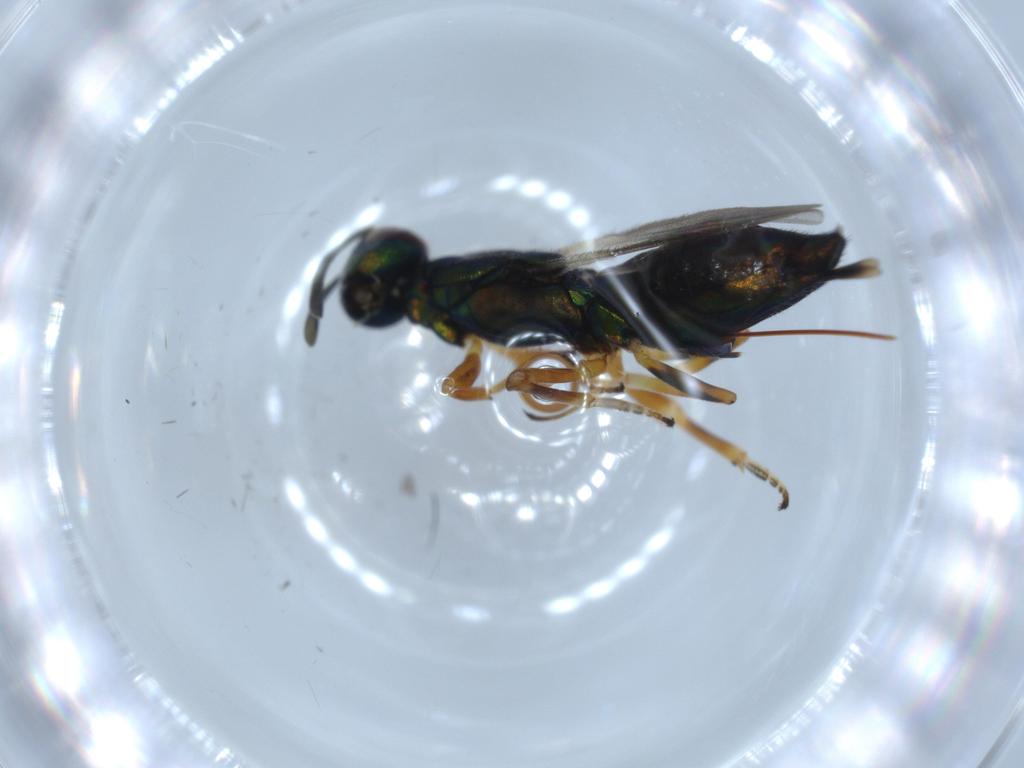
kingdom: Animalia
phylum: Arthropoda
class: Insecta
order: Hymenoptera
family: Eupelmidae
